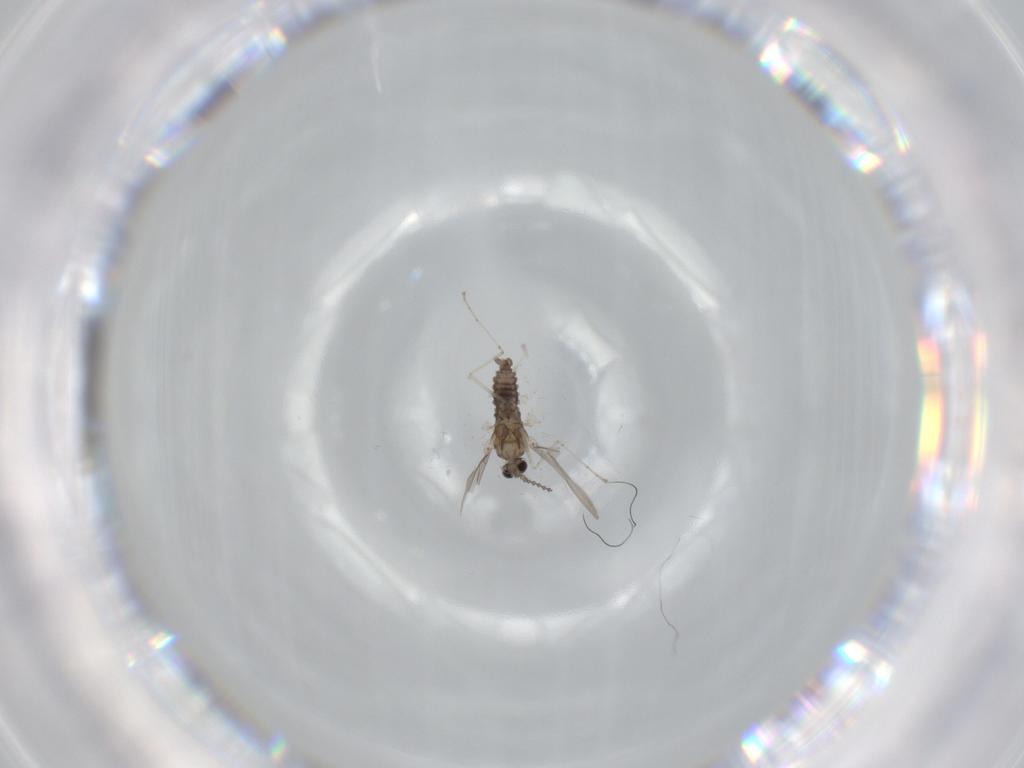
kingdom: Animalia
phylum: Arthropoda
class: Insecta
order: Diptera
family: Cecidomyiidae
